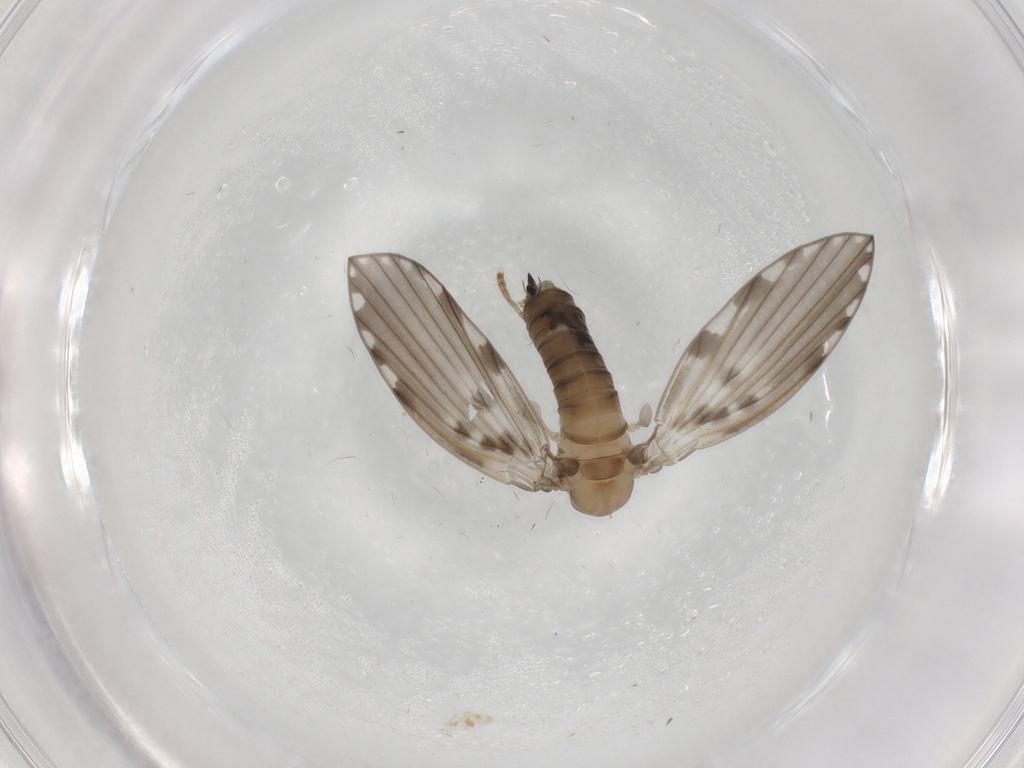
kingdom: Animalia
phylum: Arthropoda
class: Insecta
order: Diptera
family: Psychodidae
